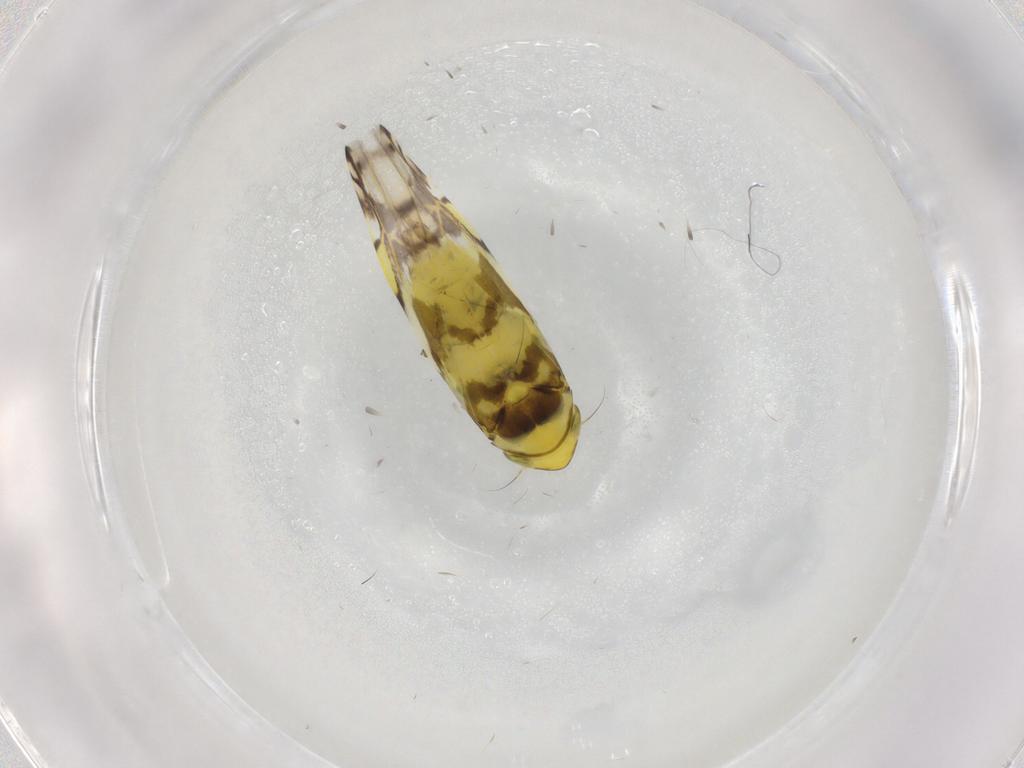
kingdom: Animalia
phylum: Arthropoda
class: Insecta
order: Hemiptera
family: Cicadellidae
